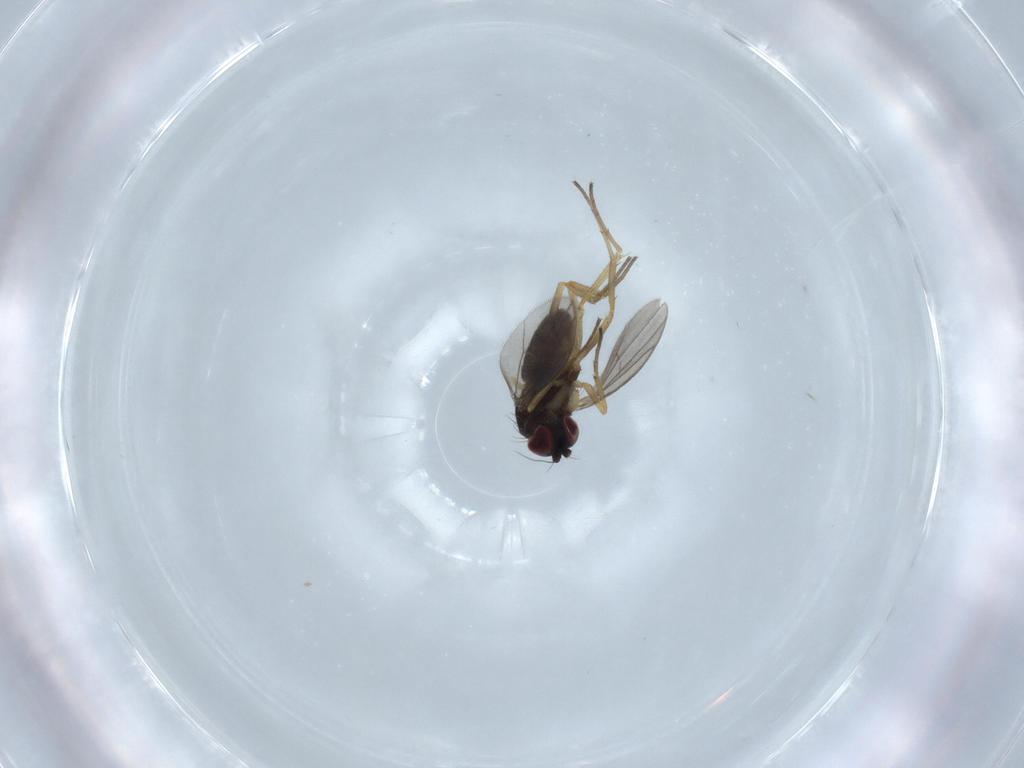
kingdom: Animalia
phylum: Arthropoda
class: Insecta
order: Diptera
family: Dolichopodidae
